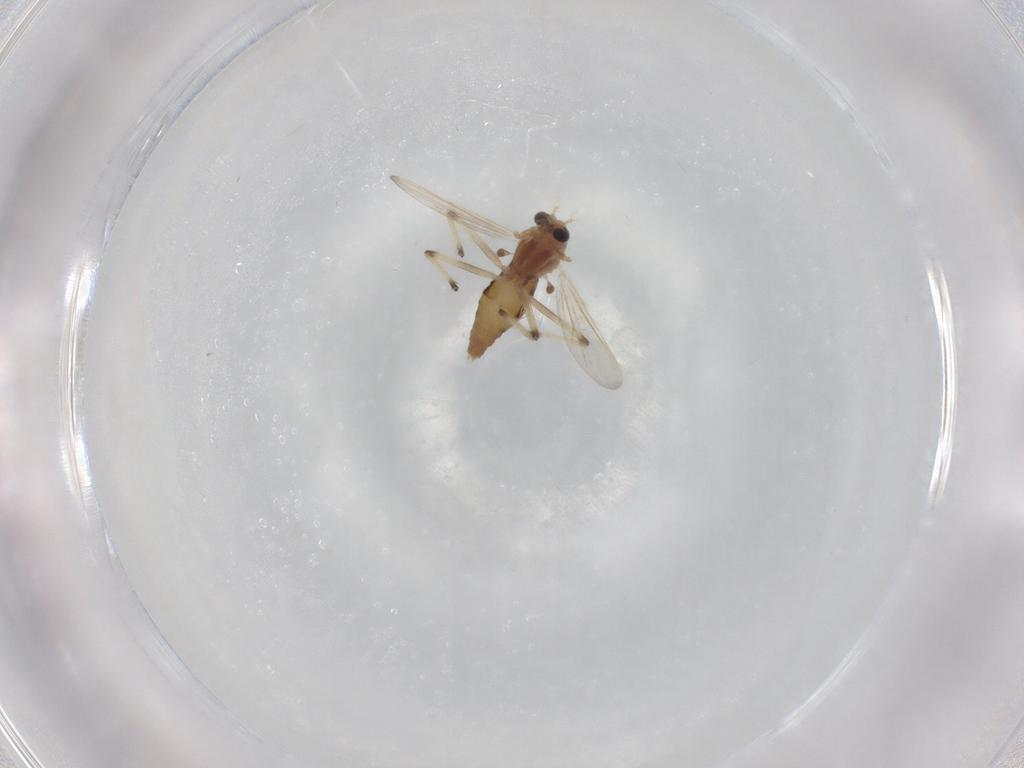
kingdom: Animalia
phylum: Arthropoda
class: Insecta
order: Diptera
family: Chironomidae
